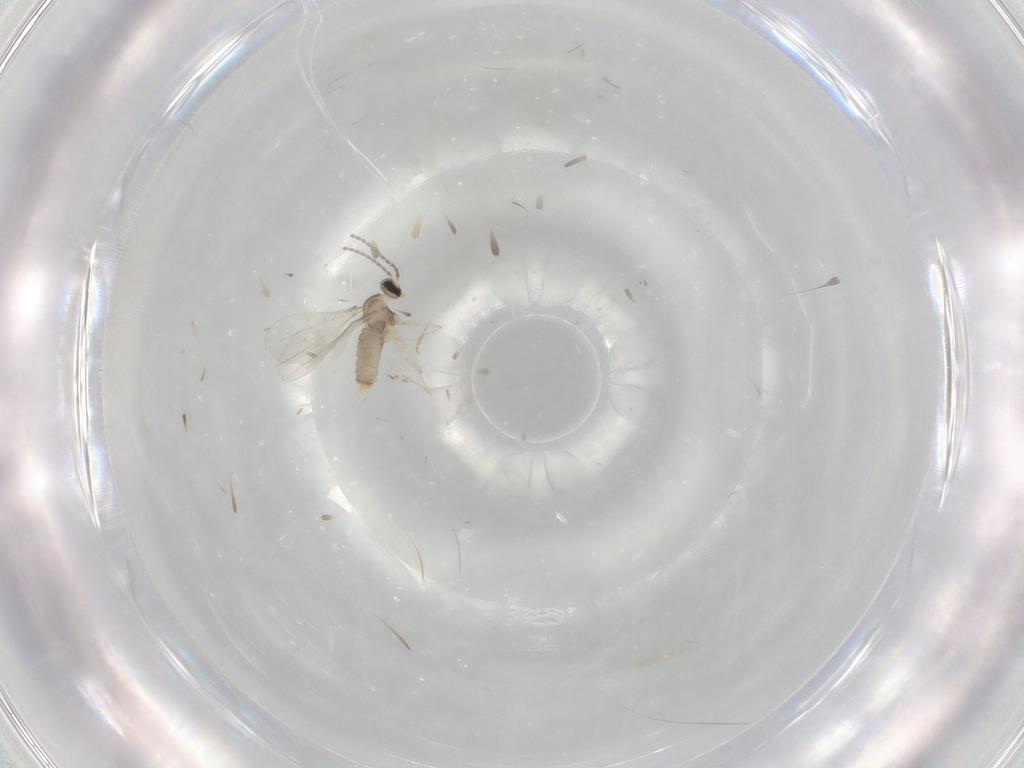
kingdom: Animalia
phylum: Arthropoda
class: Insecta
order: Diptera
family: Cecidomyiidae
